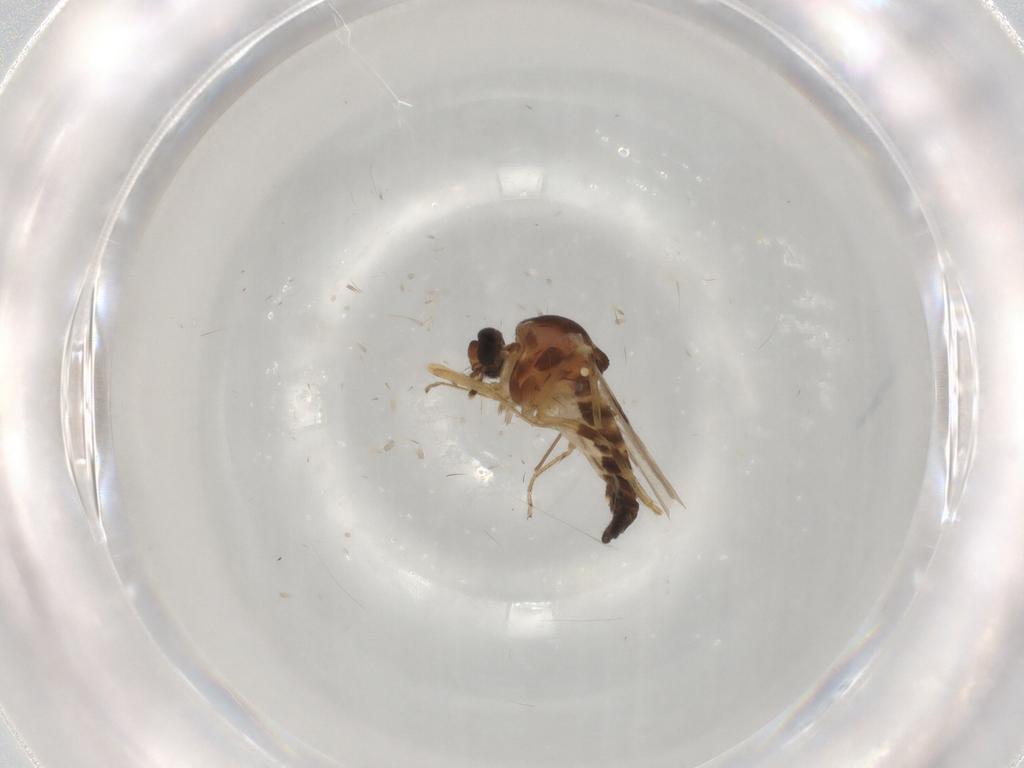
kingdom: Animalia
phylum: Arthropoda
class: Insecta
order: Diptera
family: Ceratopogonidae
